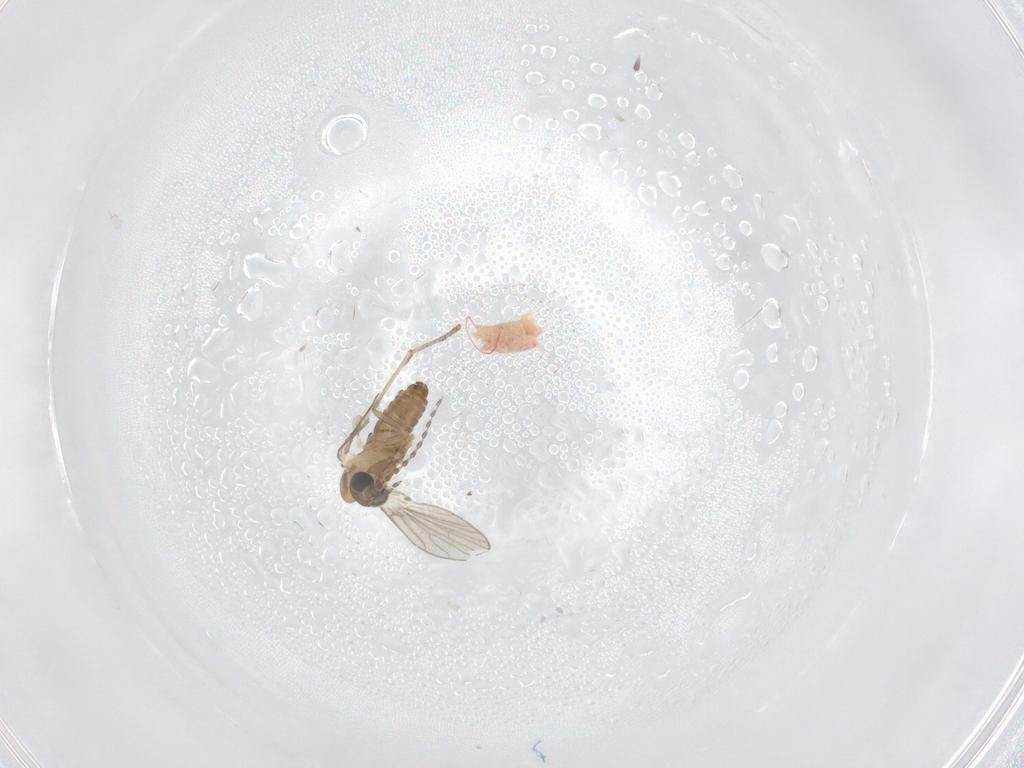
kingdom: Animalia
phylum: Arthropoda
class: Insecta
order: Diptera
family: Psychodidae
